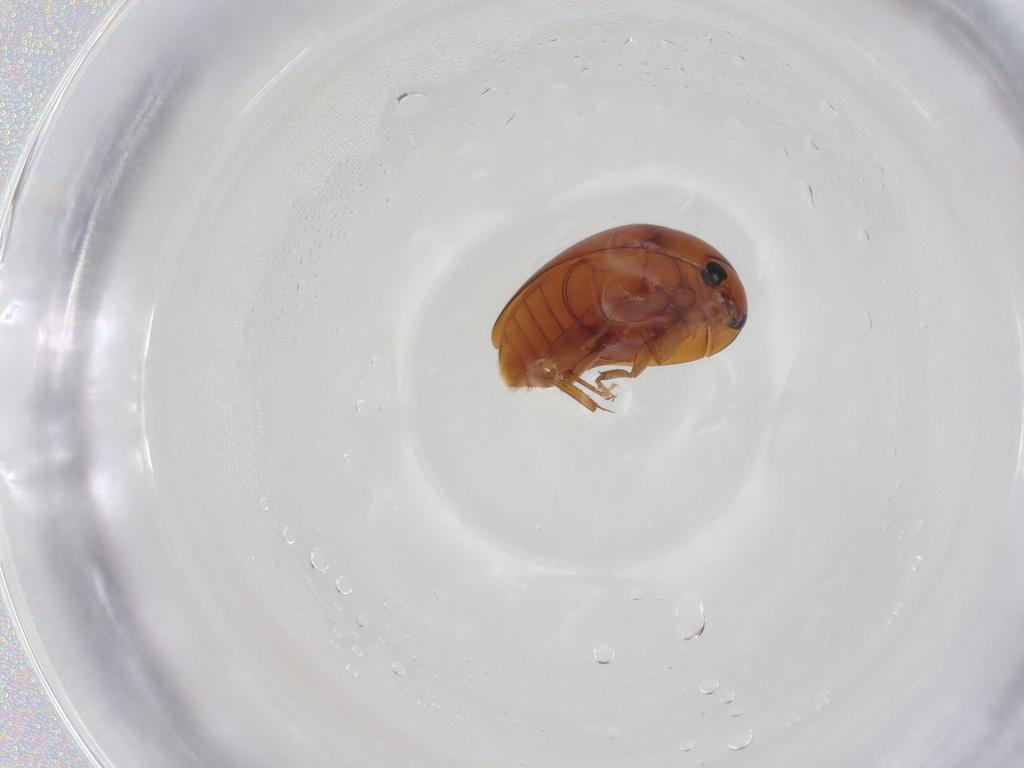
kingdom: Animalia
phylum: Arthropoda
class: Insecta
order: Coleoptera
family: Phalacridae
